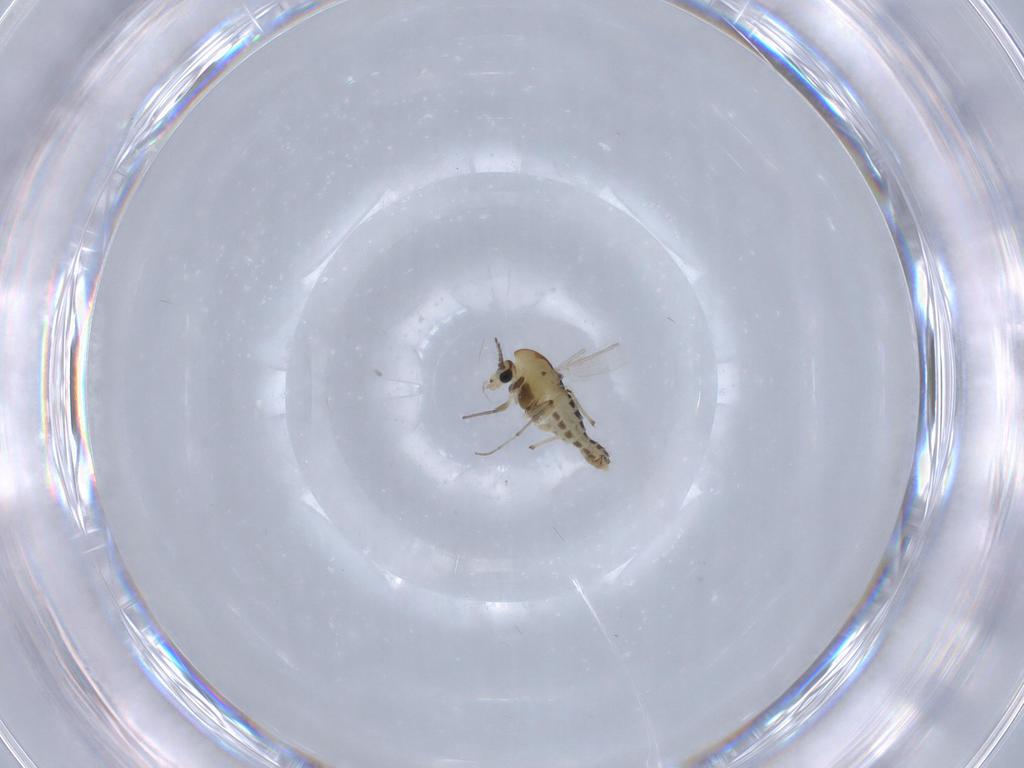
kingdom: Animalia
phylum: Arthropoda
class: Insecta
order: Diptera
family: Chironomidae
